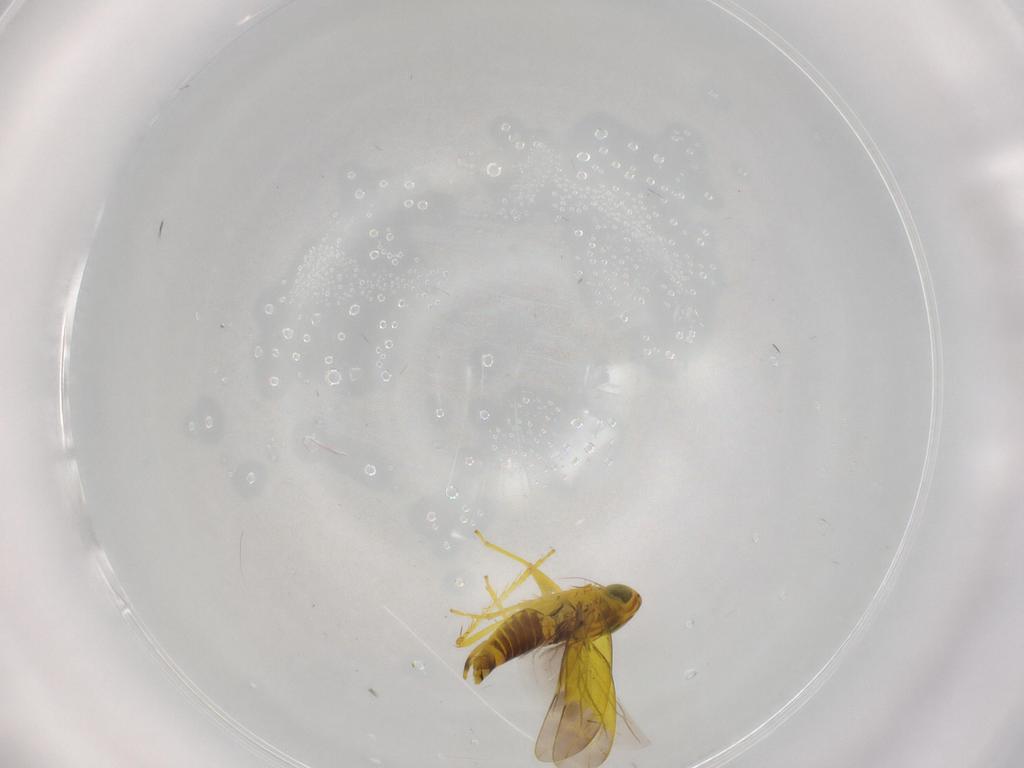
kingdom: Animalia
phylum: Arthropoda
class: Insecta
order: Hemiptera
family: Cicadellidae
